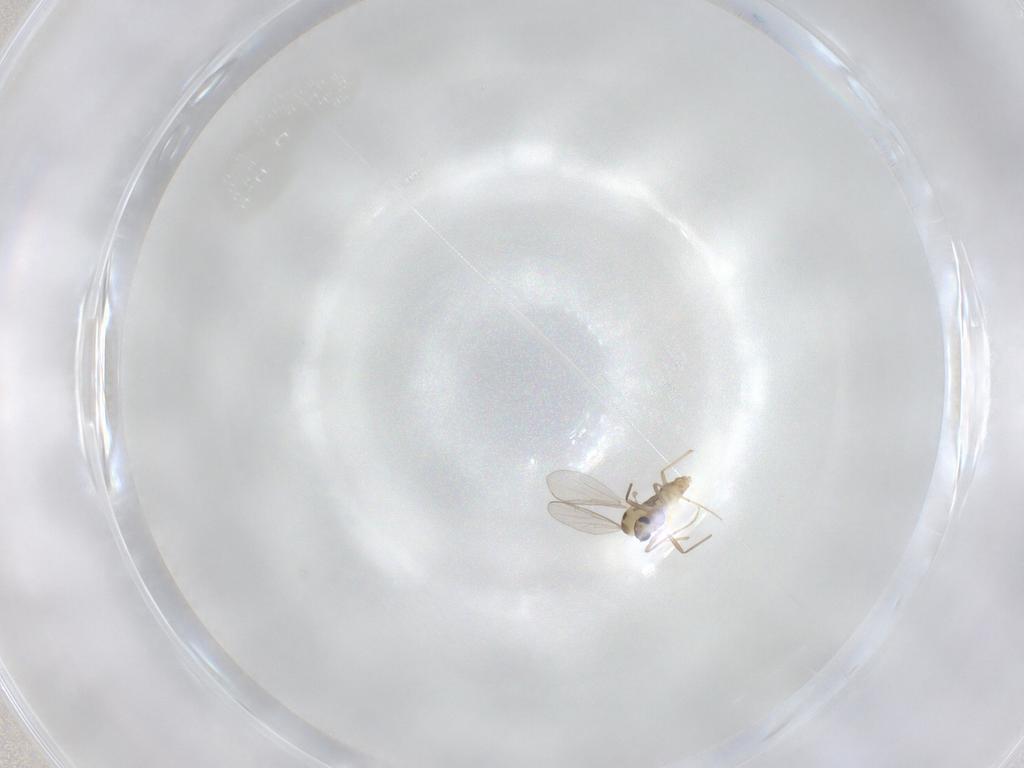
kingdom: Animalia
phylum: Arthropoda
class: Insecta
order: Diptera
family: Chironomidae
